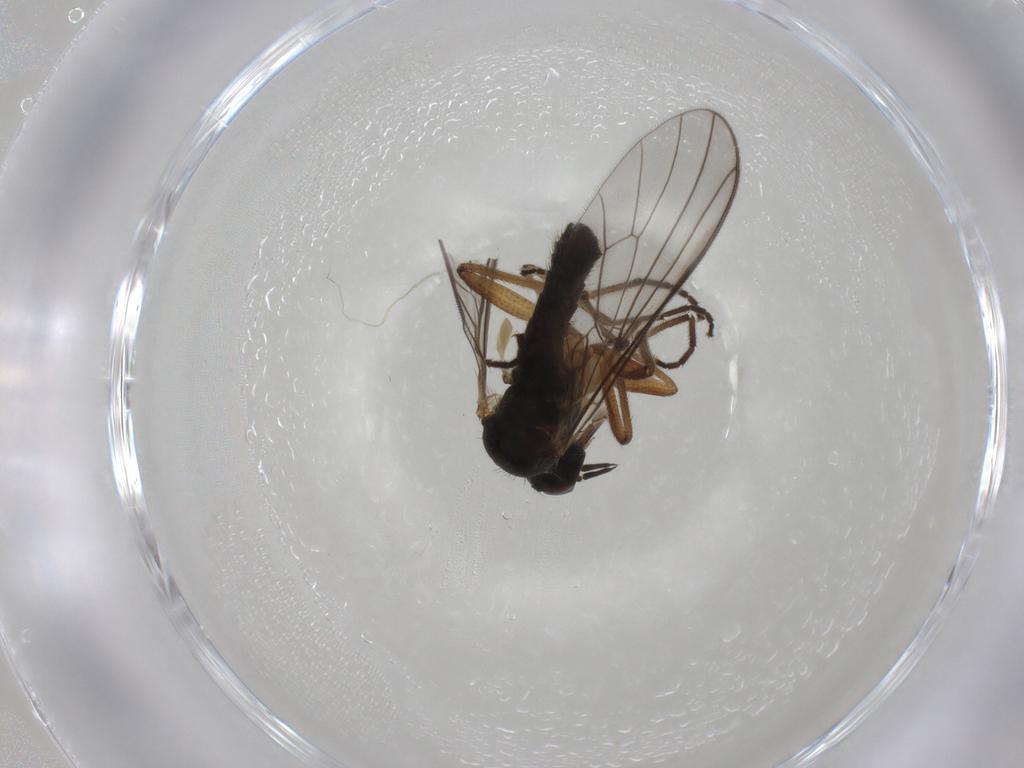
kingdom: Animalia
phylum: Arthropoda
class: Insecta
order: Diptera
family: Empididae
